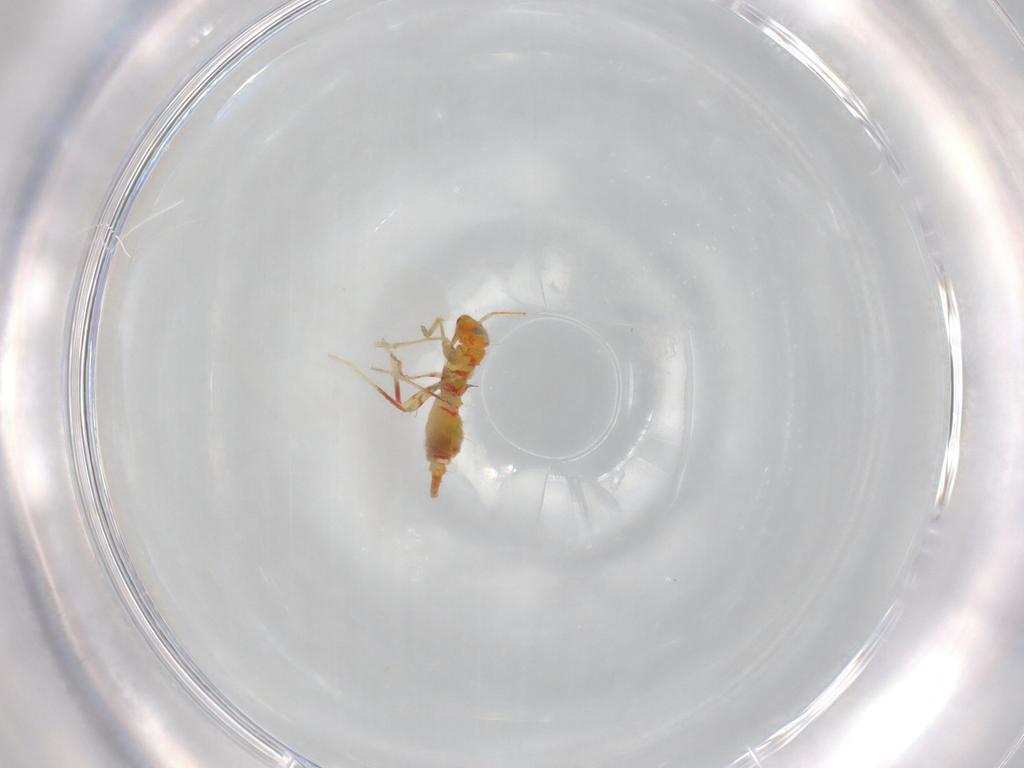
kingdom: Animalia
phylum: Arthropoda
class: Insecta
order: Hemiptera
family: Miridae
